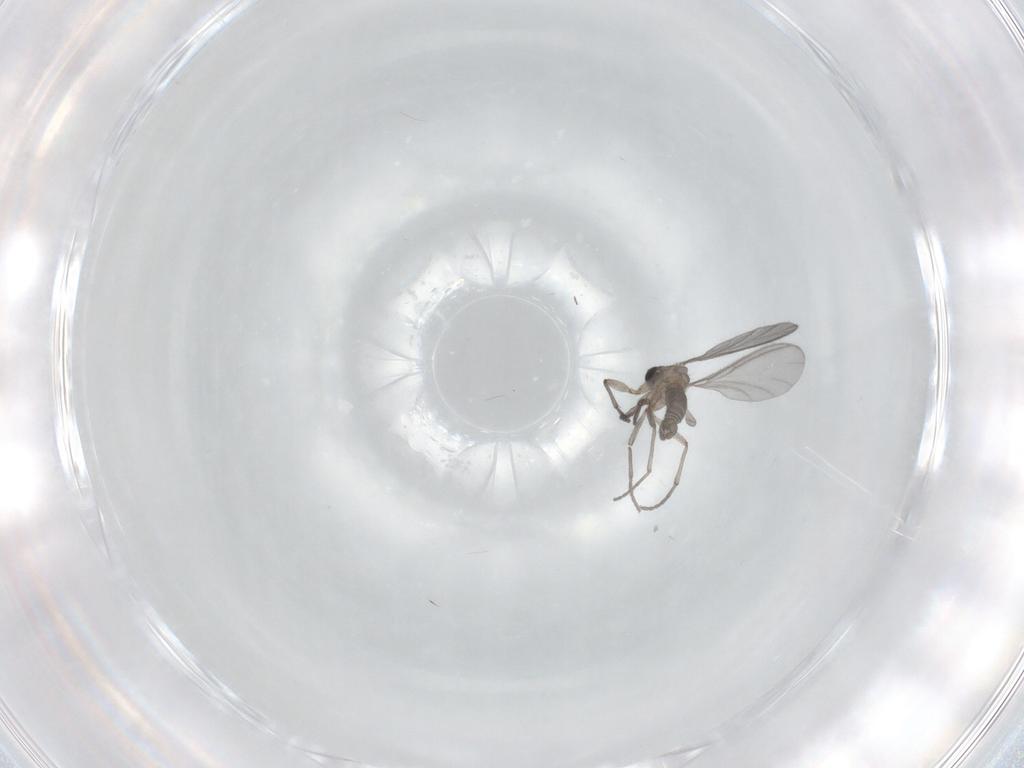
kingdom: Animalia
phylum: Arthropoda
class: Insecta
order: Diptera
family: Sciaridae
